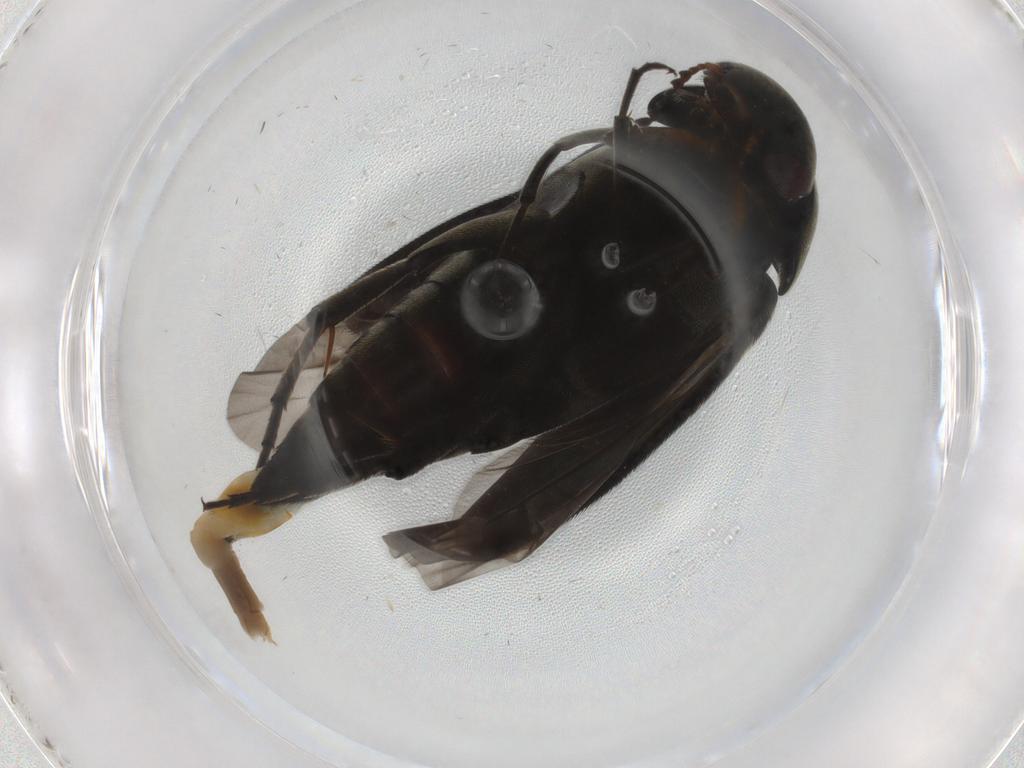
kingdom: Animalia
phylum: Arthropoda
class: Insecta
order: Coleoptera
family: Mordellidae
